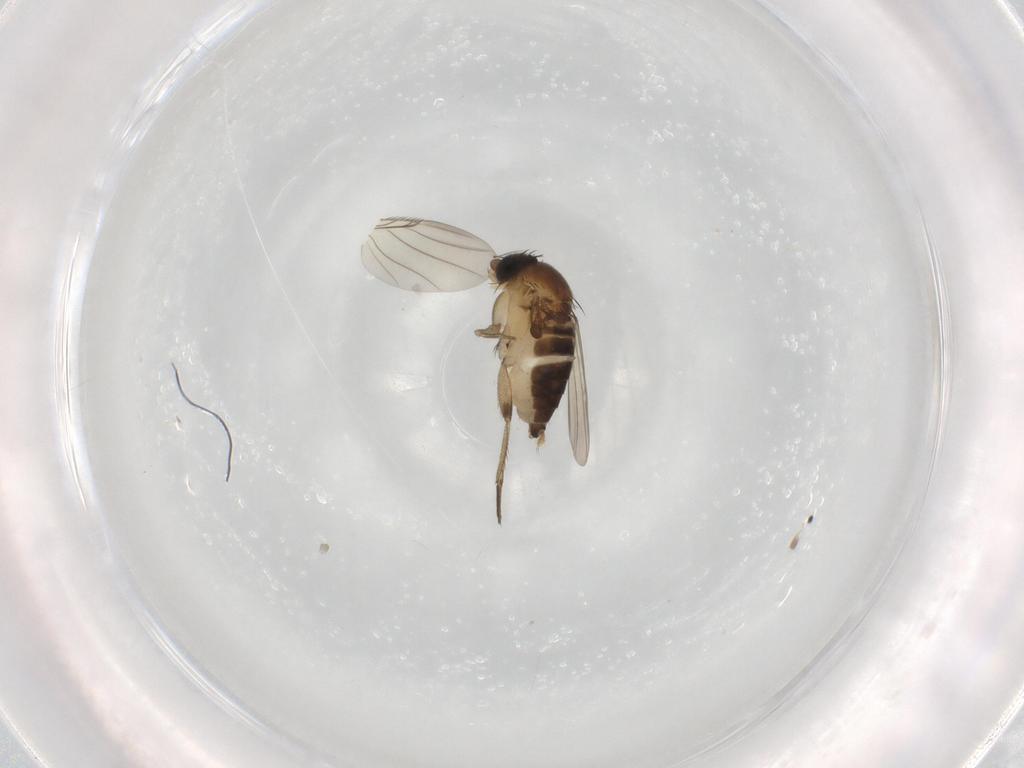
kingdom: Animalia
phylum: Arthropoda
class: Insecta
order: Diptera
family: Phoridae
